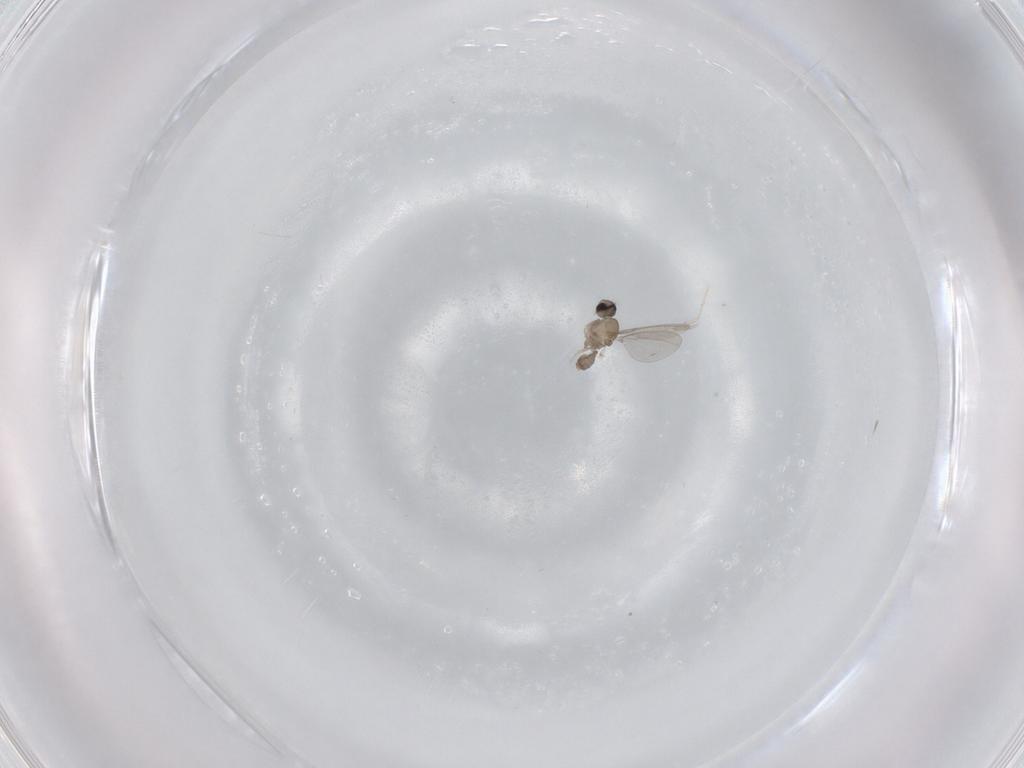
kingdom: Animalia
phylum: Arthropoda
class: Insecta
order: Diptera
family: Cecidomyiidae
